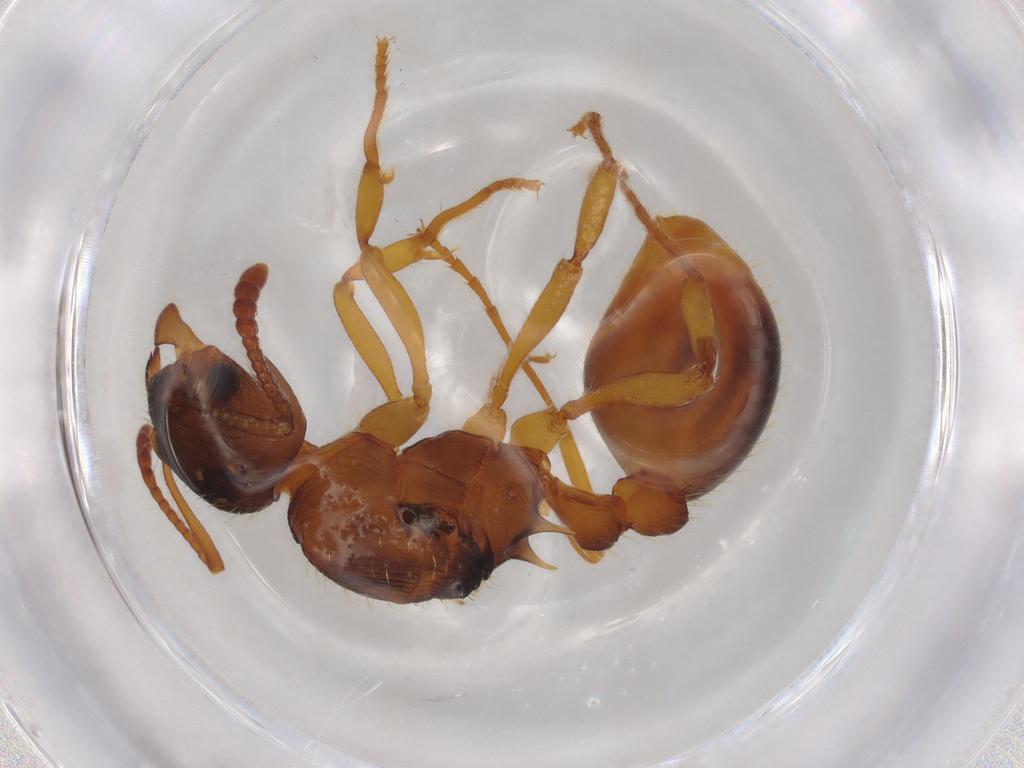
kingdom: Animalia
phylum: Arthropoda
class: Insecta
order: Hymenoptera
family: Formicidae
